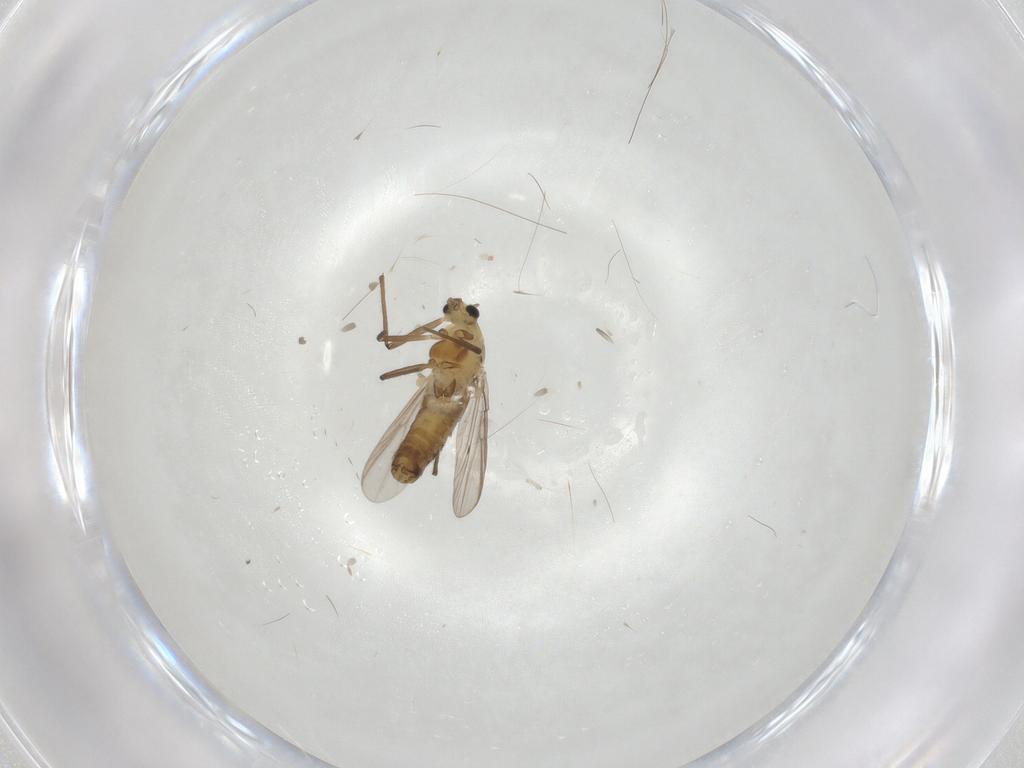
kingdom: Animalia
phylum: Arthropoda
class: Insecta
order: Diptera
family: Chironomidae
